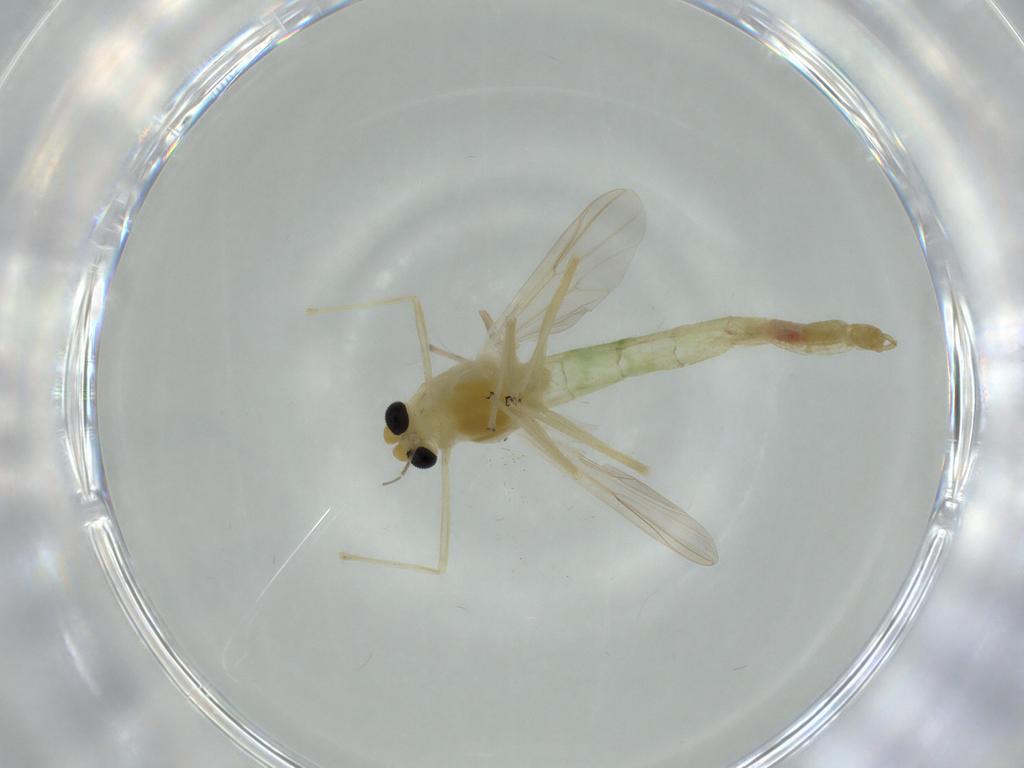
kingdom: Animalia
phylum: Arthropoda
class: Insecta
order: Diptera
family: Chironomidae
